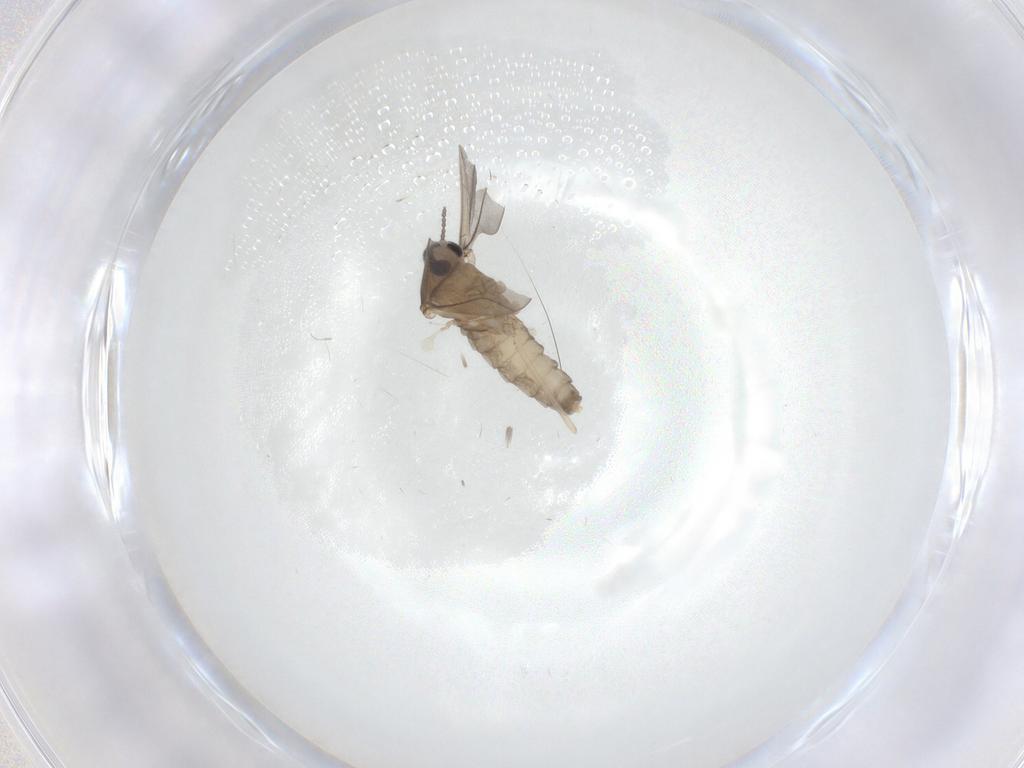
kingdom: Animalia
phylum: Arthropoda
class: Insecta
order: Diptera
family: Cecidomyiidae
